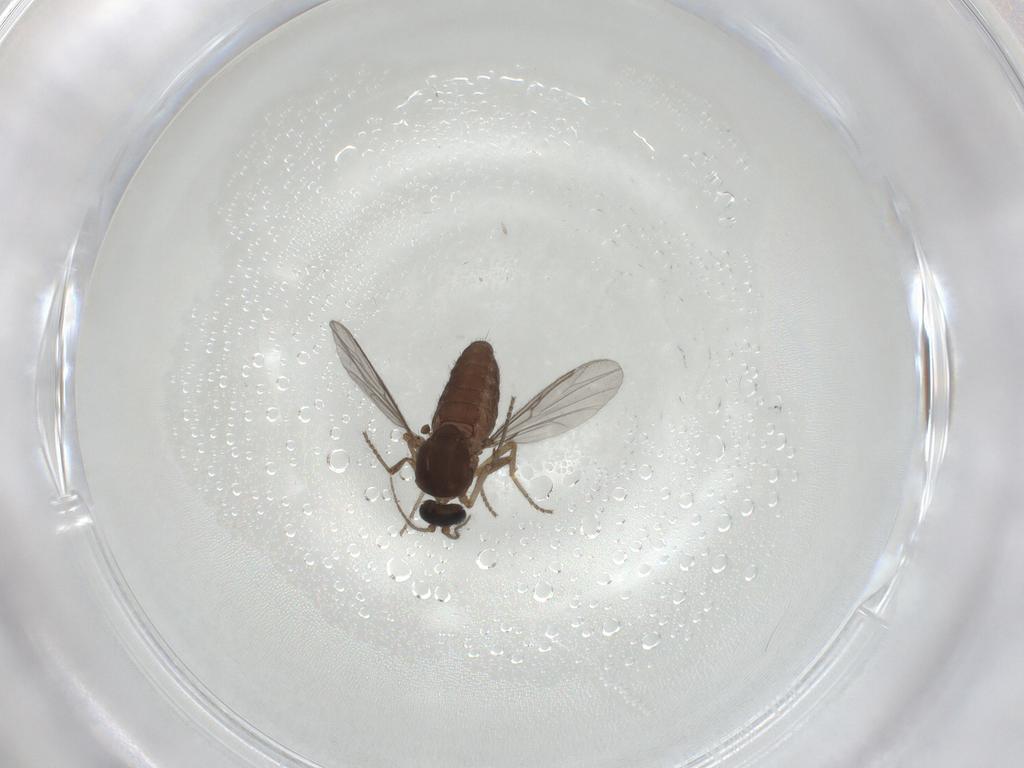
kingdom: Animalia
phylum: Arthropoda
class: Insecta
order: Diptera
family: Ceratopogonidae
